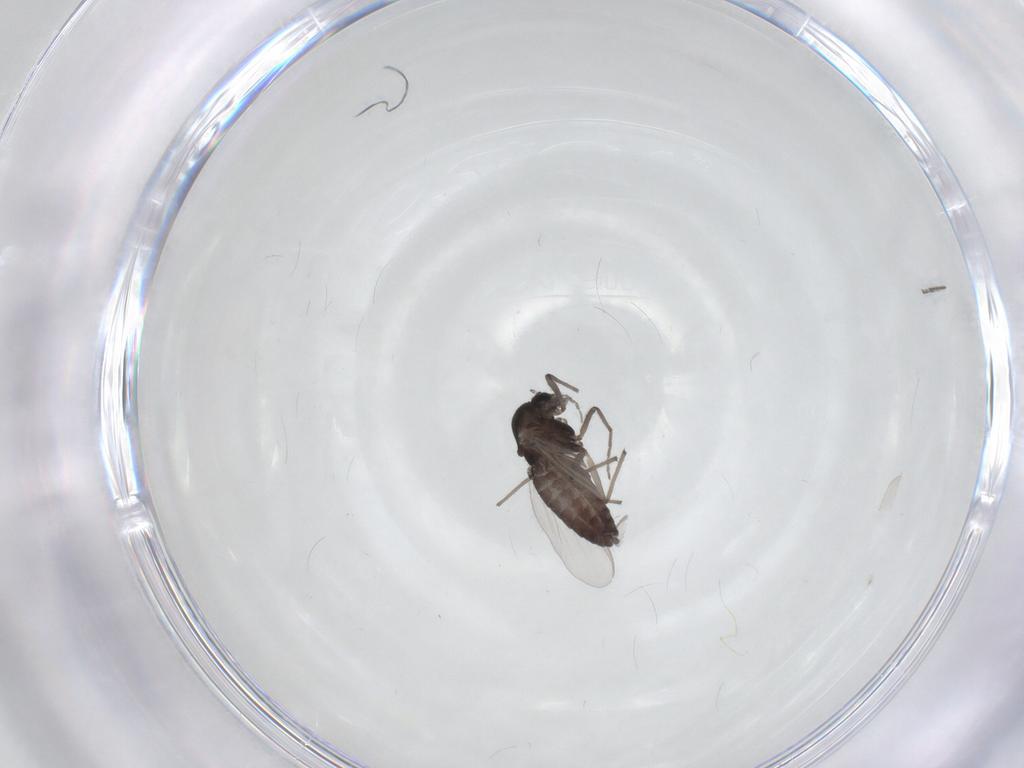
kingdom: Animalia
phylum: Arthropoda
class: Insecta
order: Diptera
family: Chironomidae
